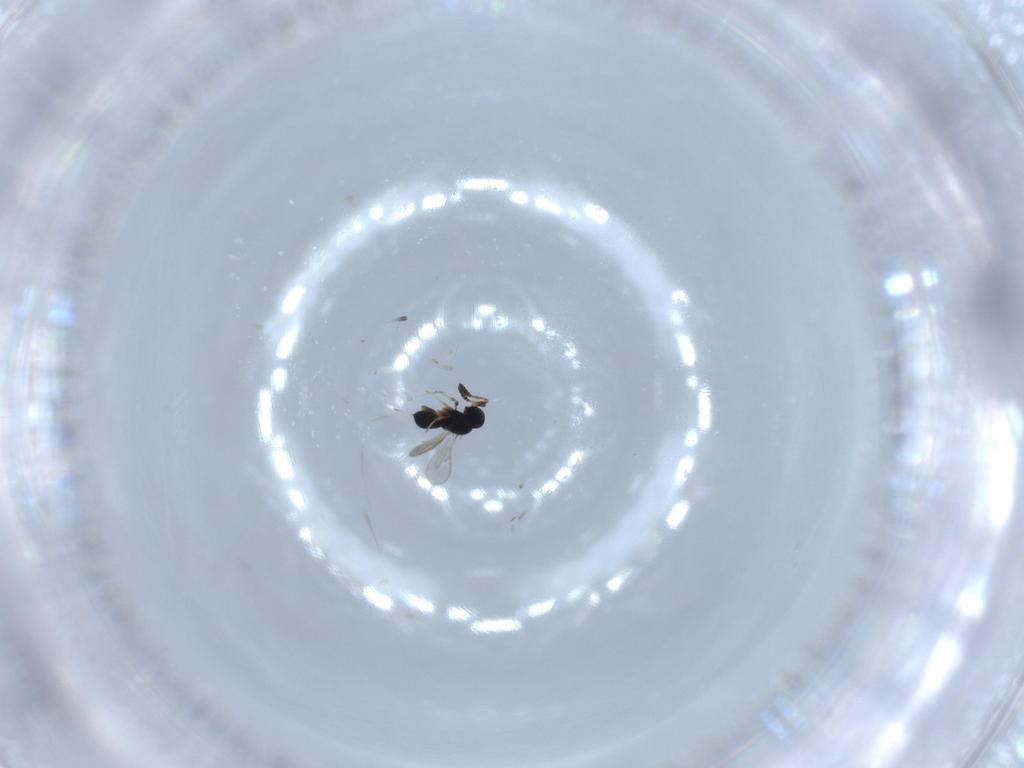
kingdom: Animalia
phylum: Arthropoda
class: Insecta
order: Hymenoptera
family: Scelionidae
